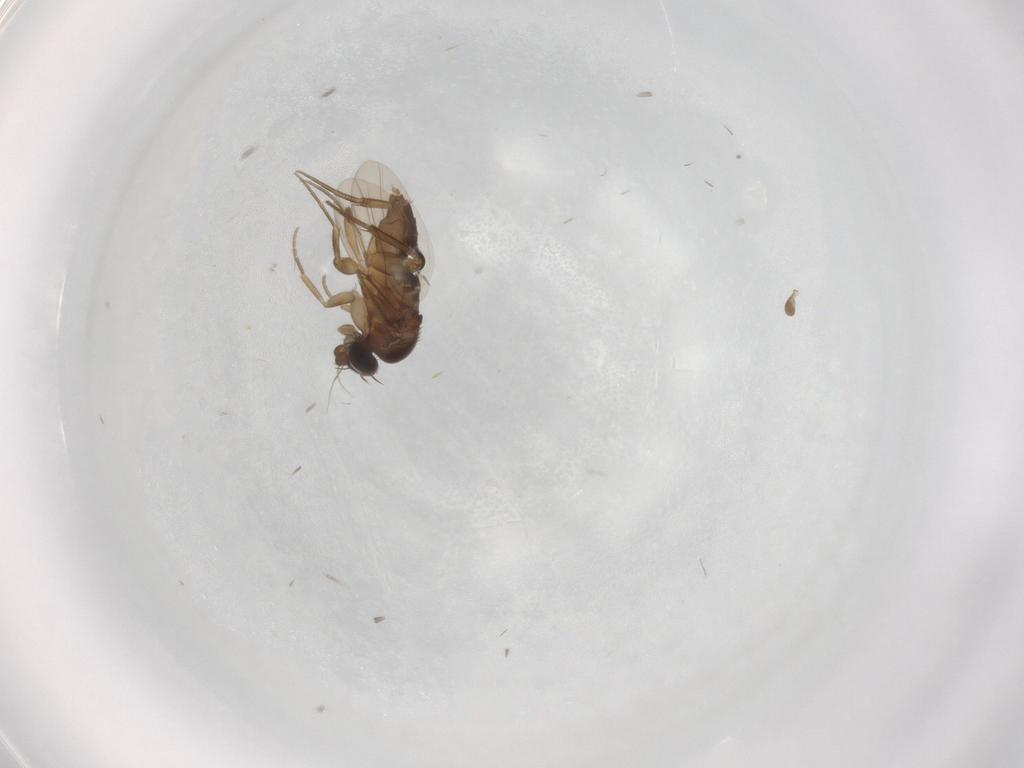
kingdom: Animalia
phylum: Arthropoda
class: Insecta
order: Diptera
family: Phoridae
